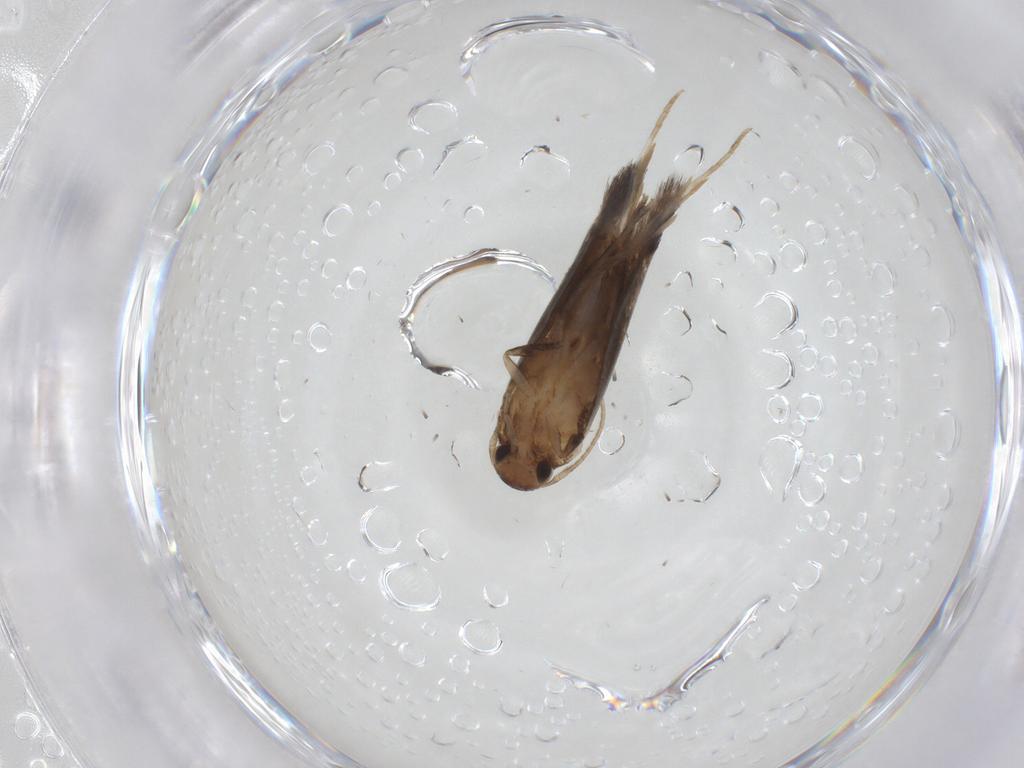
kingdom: Animalia
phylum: Arthropoda
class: Insecta
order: Lepidoptera
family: Elachistidae
